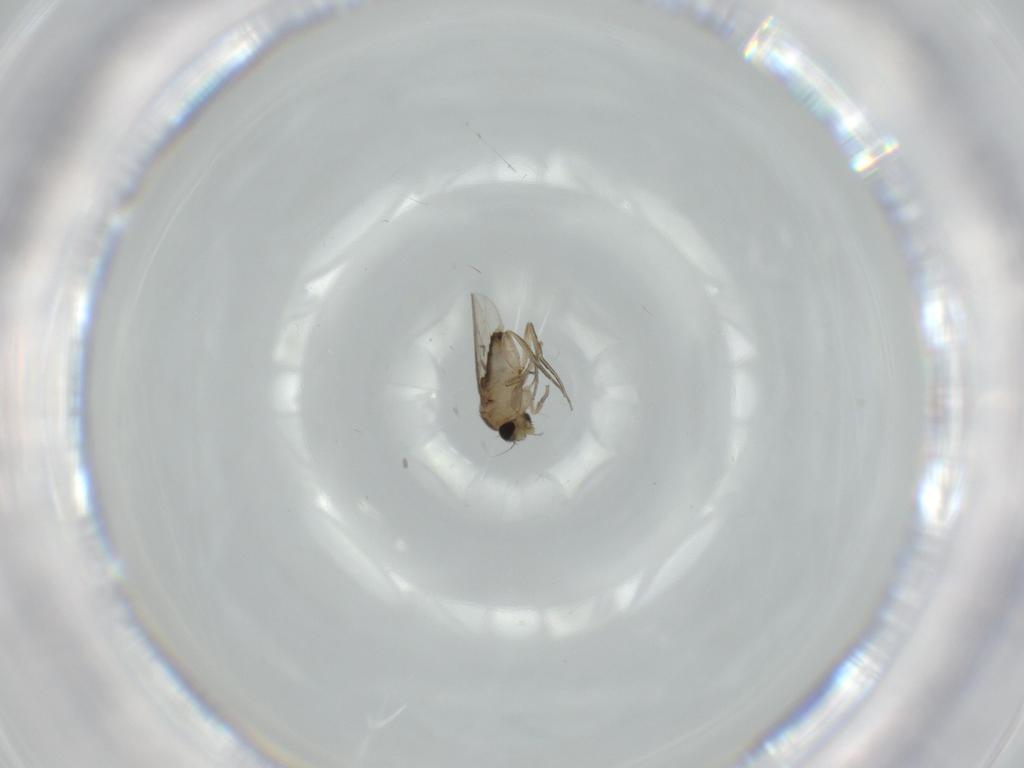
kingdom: Animalia
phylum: Arthropoda
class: Insecta
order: Diptera
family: Phoridae
